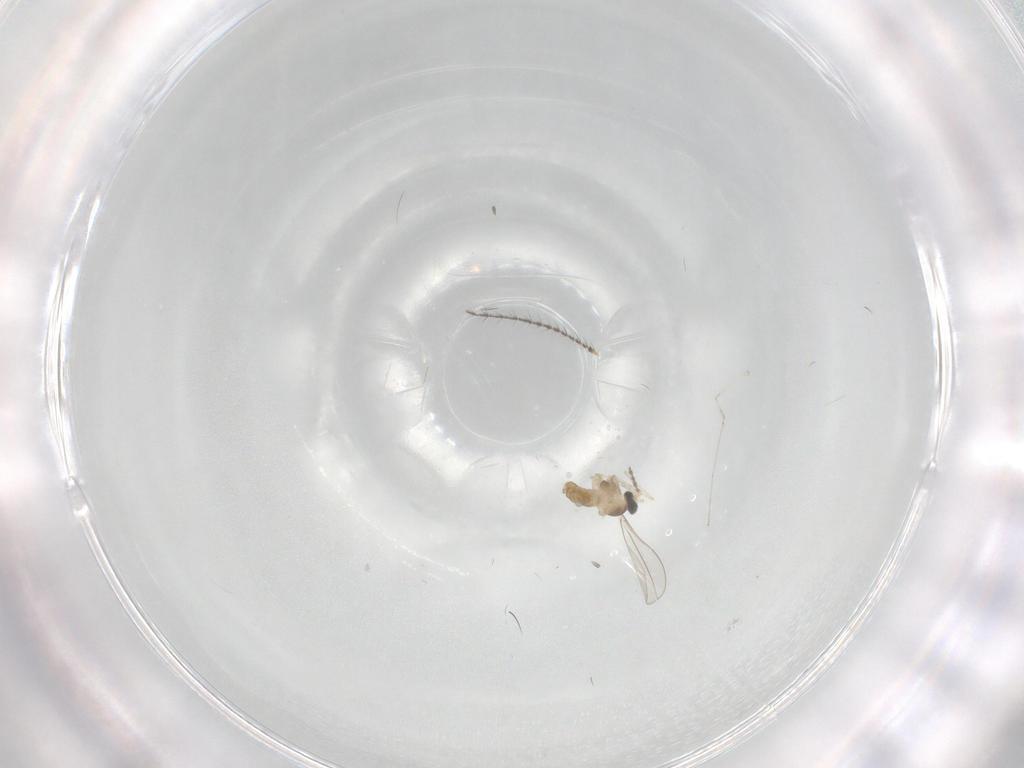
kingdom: Animalia
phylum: Arthropoda
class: Insecta
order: Diptera
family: Cecidomyiidae
